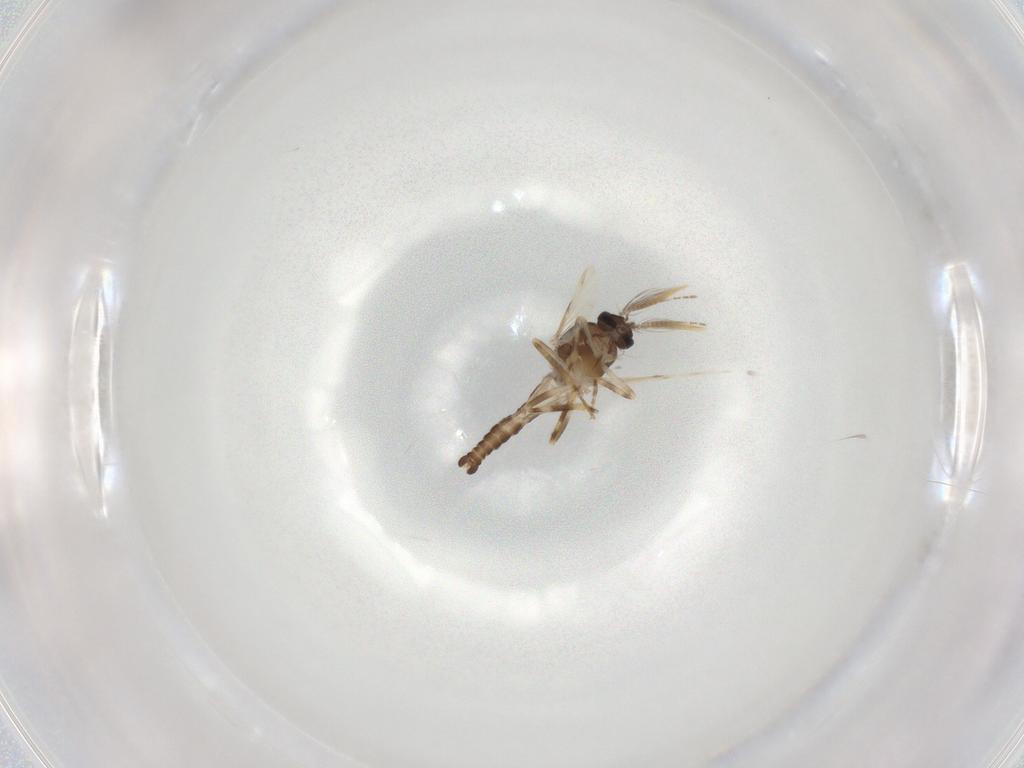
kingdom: Animalia
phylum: Arthropoda
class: Insecta
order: Diptera
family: Ceratopogonidae
